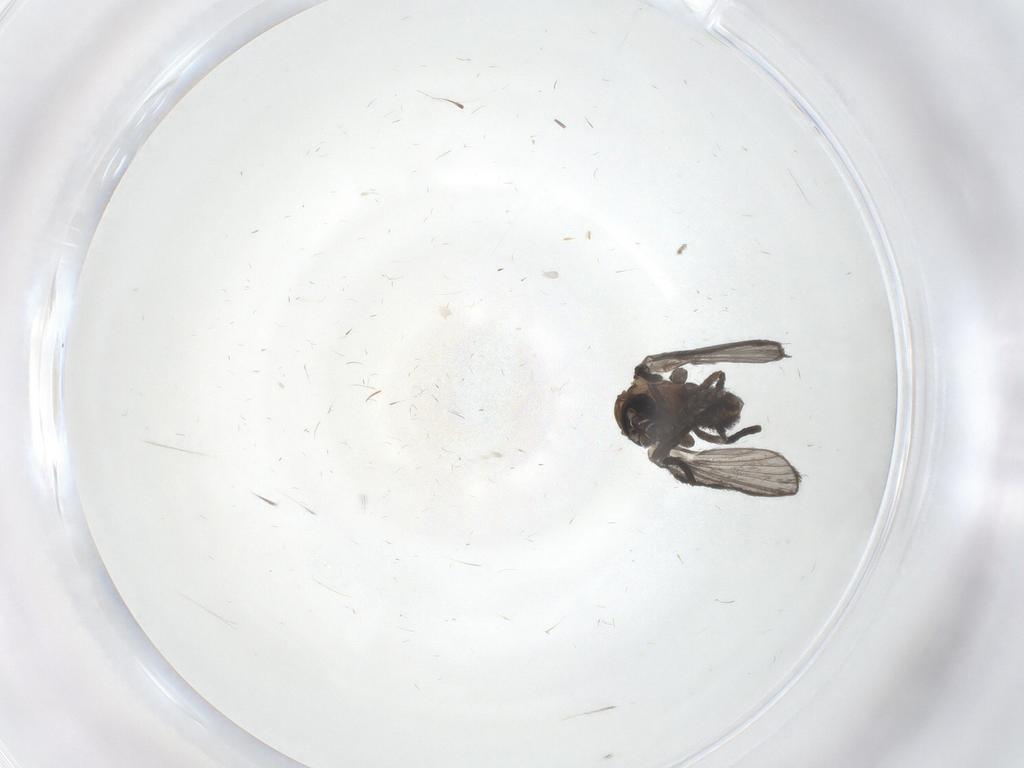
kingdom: Animalia
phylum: Arthropoda
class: Insecta
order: Diptera
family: Psychodidae
